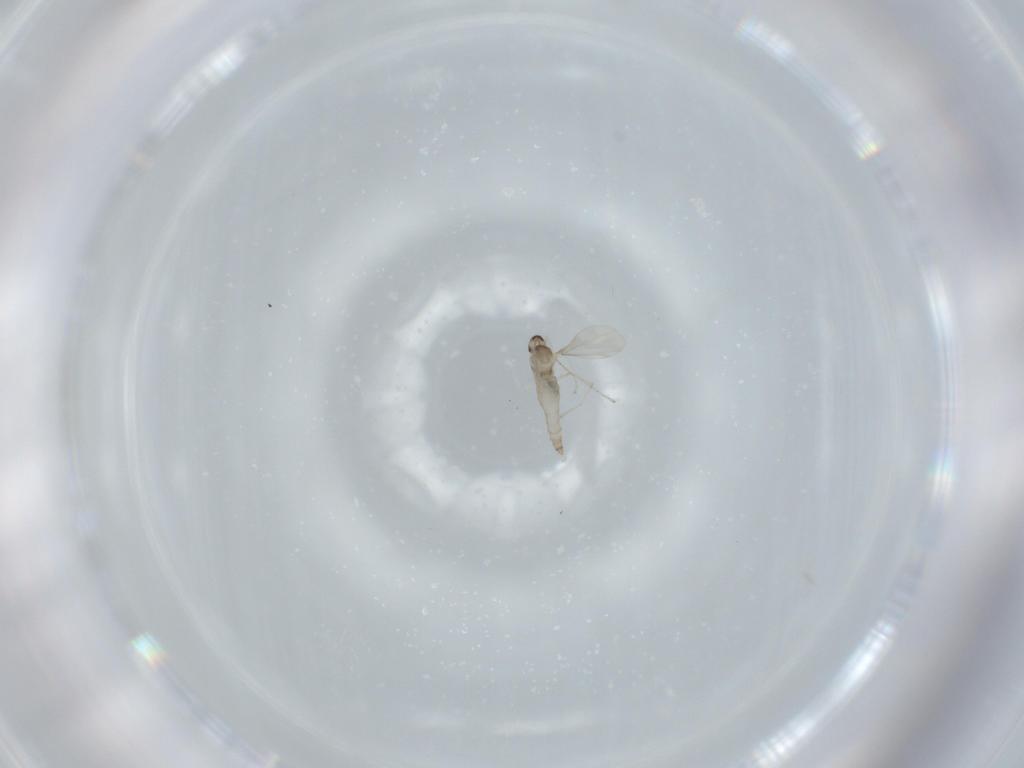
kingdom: Animalia
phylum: Arthropoda
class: Insecta
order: Diptera
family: Cecidomyiidae
